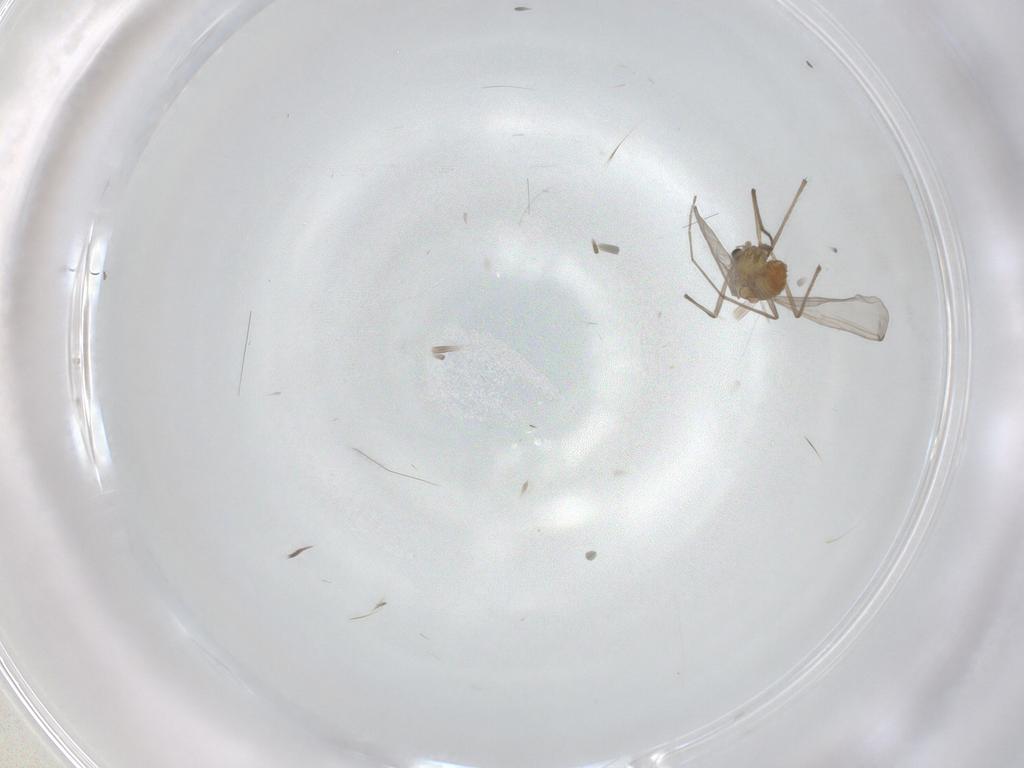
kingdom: Animalia
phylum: Arthropoda
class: Insecta
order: Diptera
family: Chironomidae
